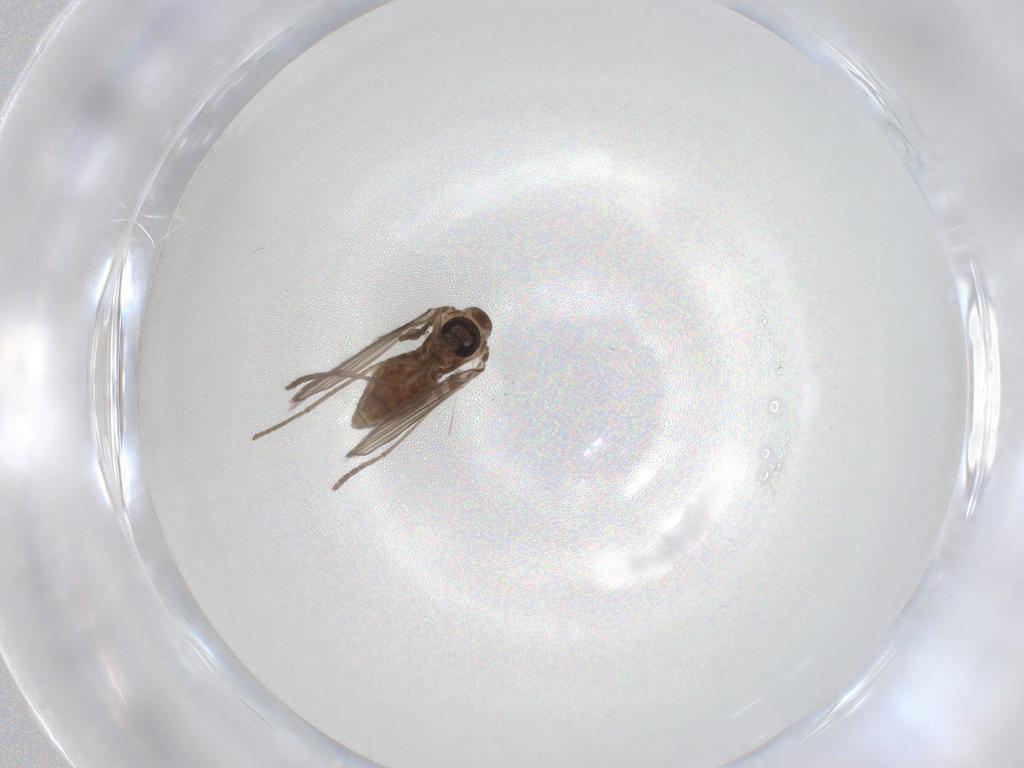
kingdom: Animalia
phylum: Arthropoda
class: Insecta
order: Diptera
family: Psychodidae
